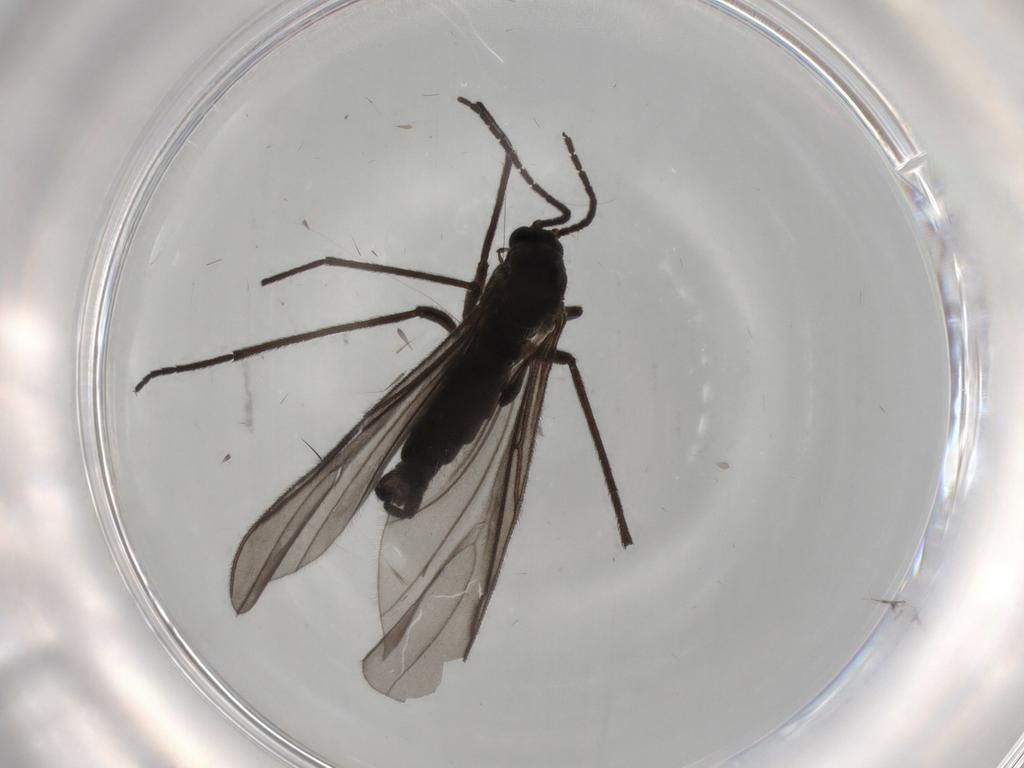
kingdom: Animalia
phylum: Arthropoda
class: Insecta
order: Diptera
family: Sciaridae
